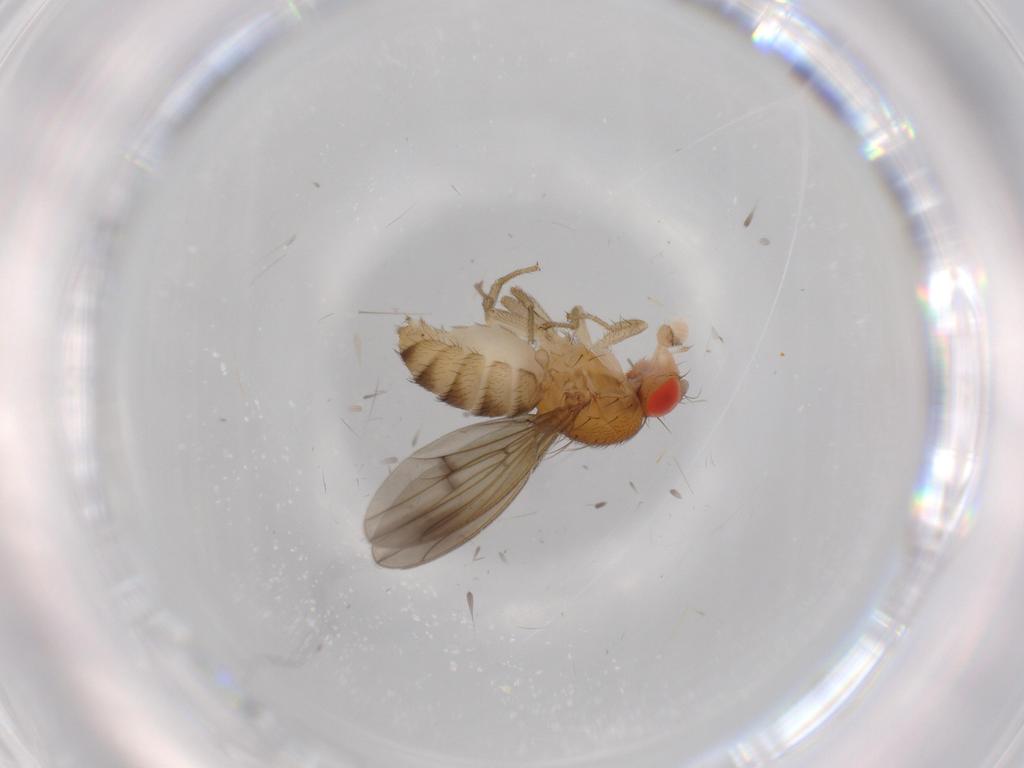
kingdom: Animalia
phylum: Arthropoda
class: Insecta
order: Diptera
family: Drosophilidae
